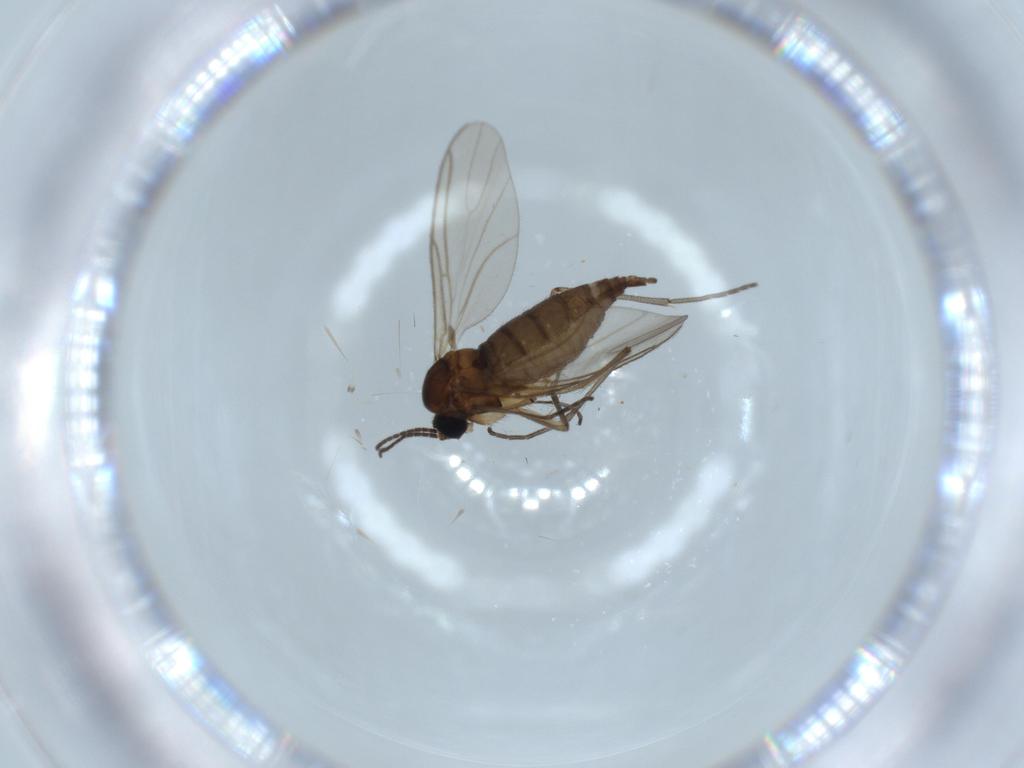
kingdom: Animalia
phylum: Arthropoda
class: Insecta
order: Diptera
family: Sciaridae
